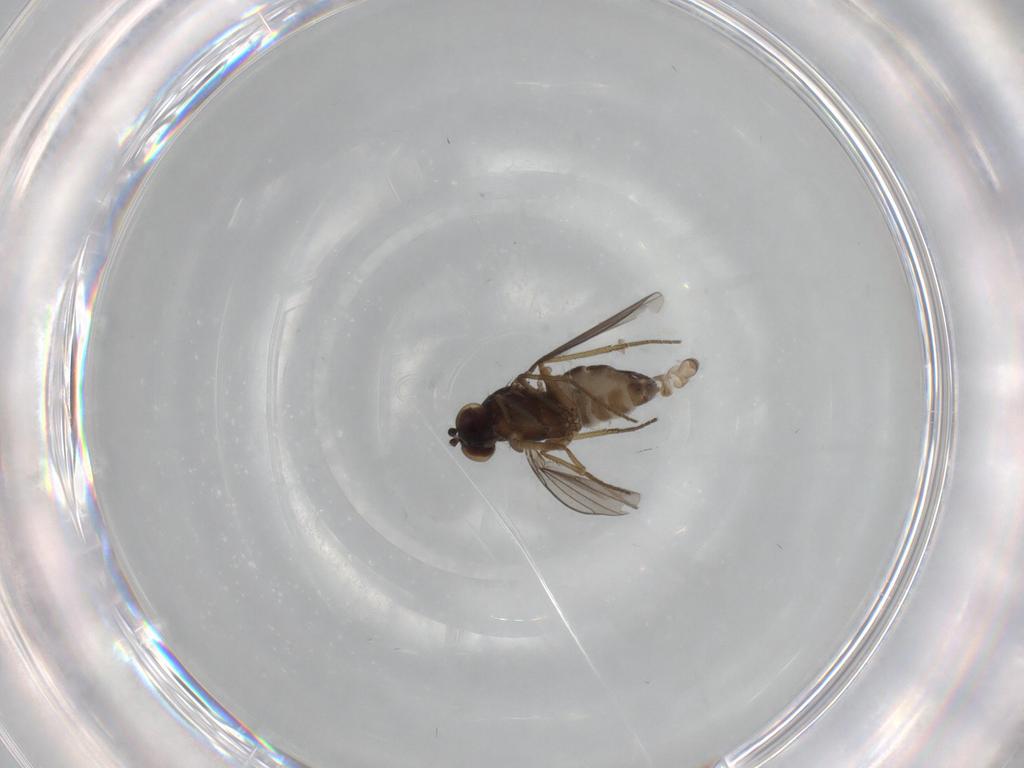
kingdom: Animalia
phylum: Arthropoda
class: Insecta
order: Diptera
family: Dolichopodidae
